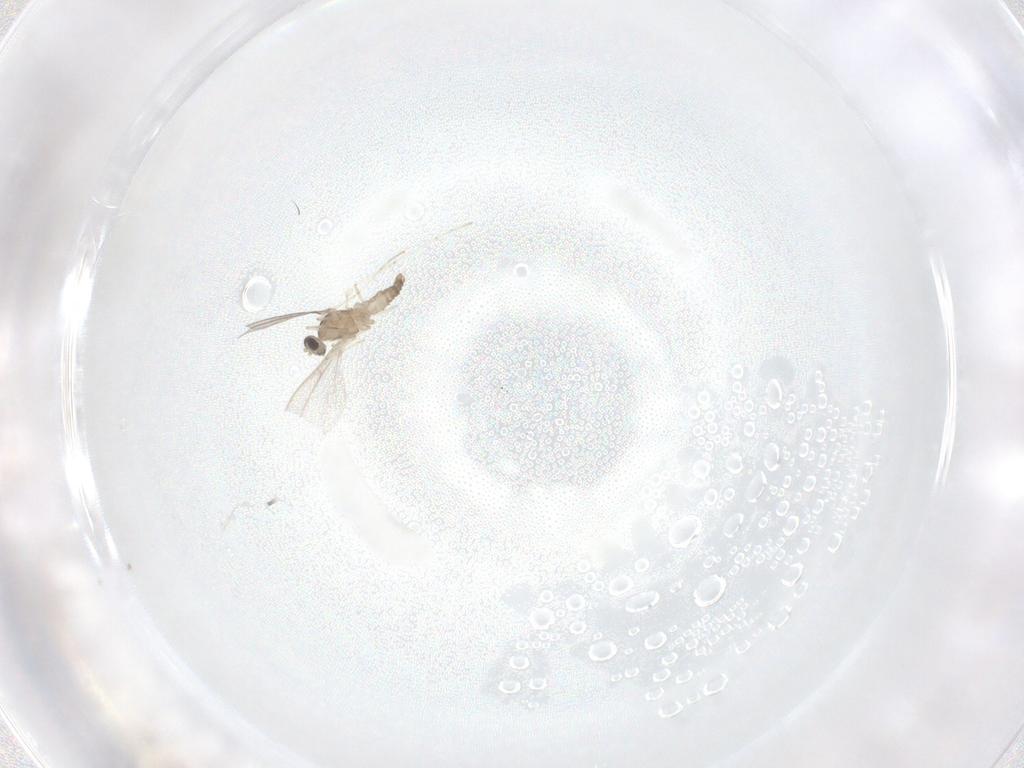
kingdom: Animalia
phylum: Arthropoda
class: Insecta
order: Diptera
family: Cecidomyiidae
